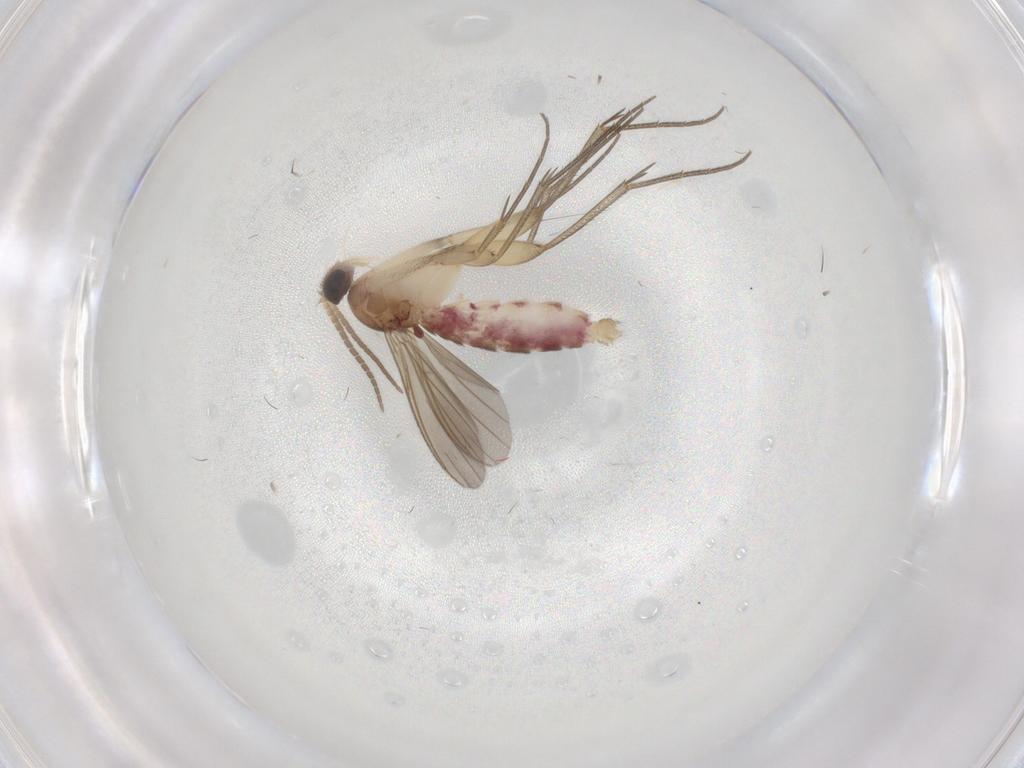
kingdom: Animalia
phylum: Arthropoda
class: Insecta
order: Diptera
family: Mycetophilidae
